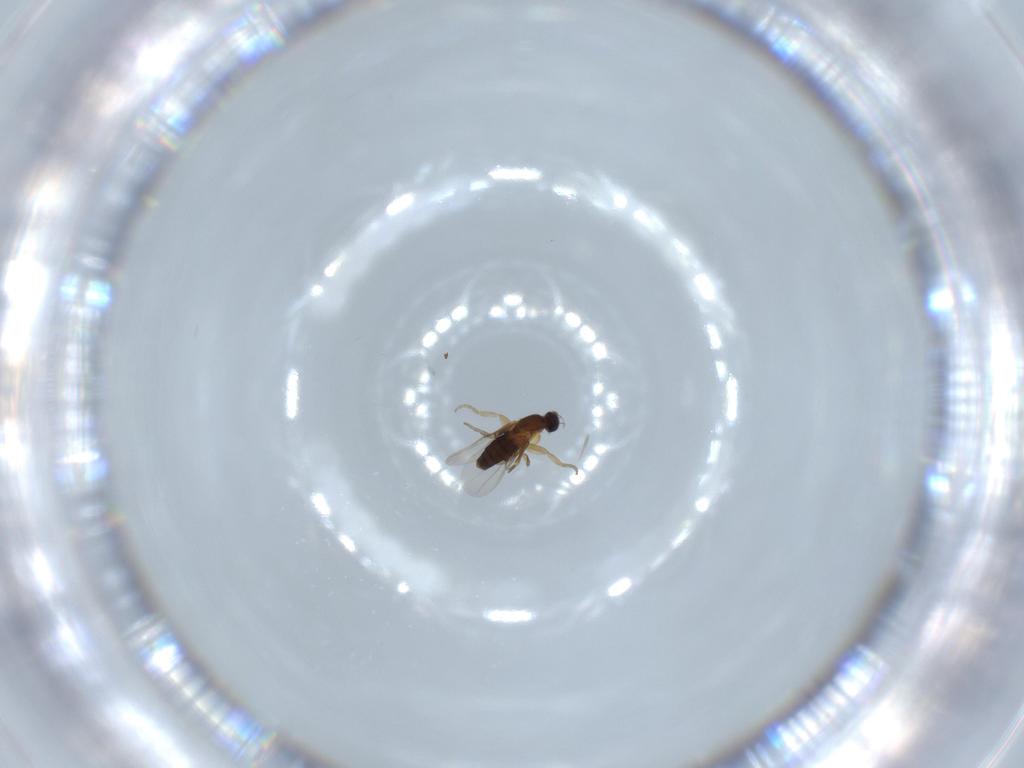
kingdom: Animalia
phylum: Arthropoda
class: Insecta
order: Diptera
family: Phoridae
